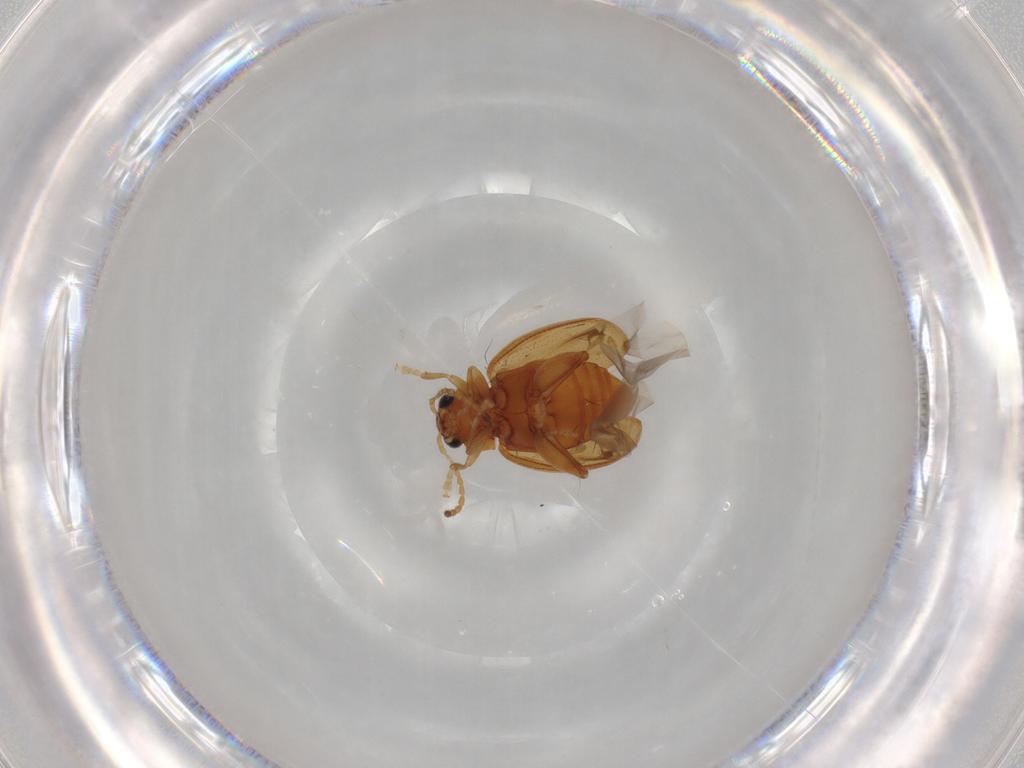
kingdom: Animalia
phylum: Arthropoda
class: Insecta
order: Coleoptera
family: Chrysomelidae
